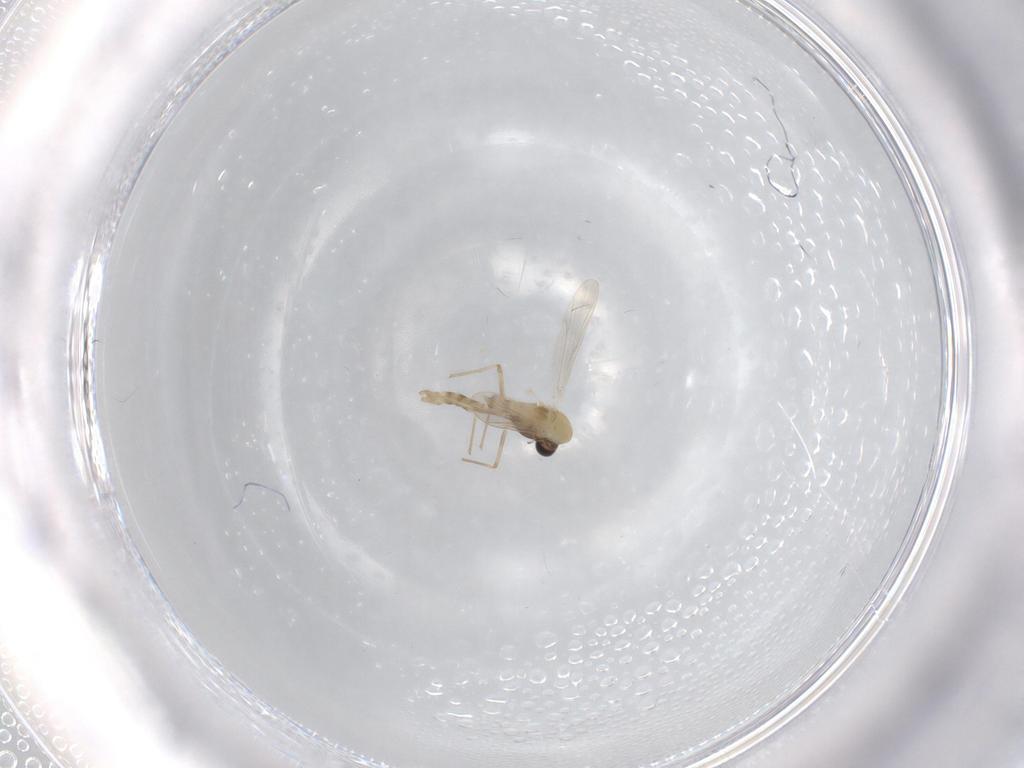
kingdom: Animalia
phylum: Arthropoda
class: Insecta
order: Diptera
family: Chironomidae
